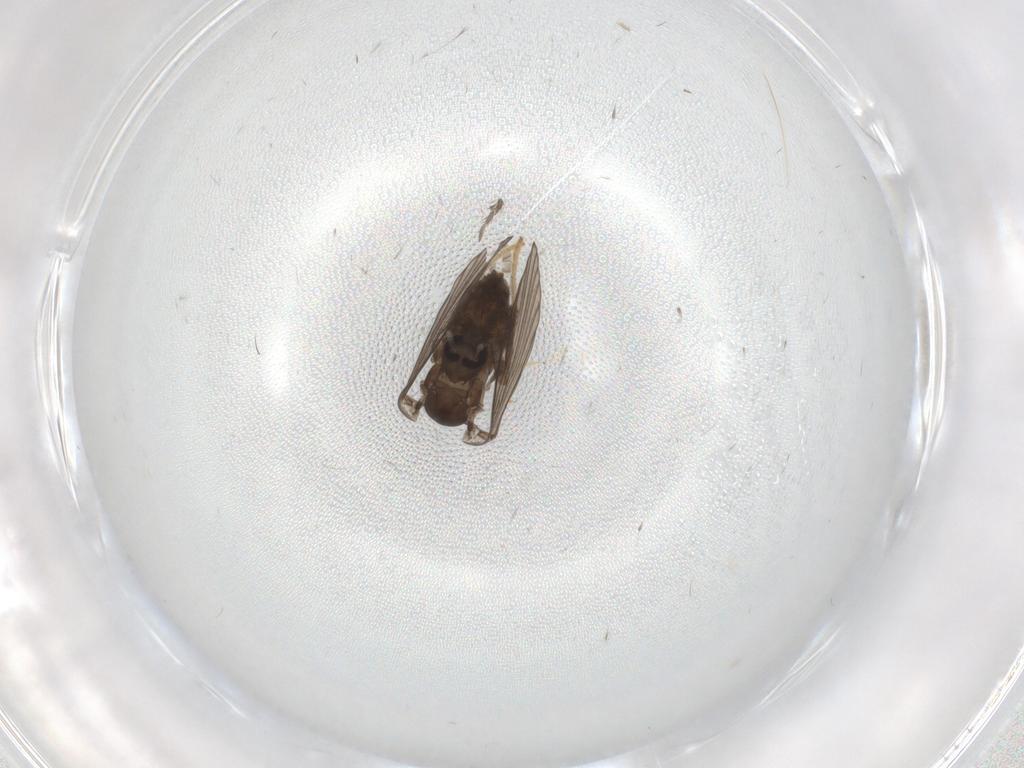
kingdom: Animalia
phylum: Arthropoda
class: Insecta
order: Diptera
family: Psychodidae
